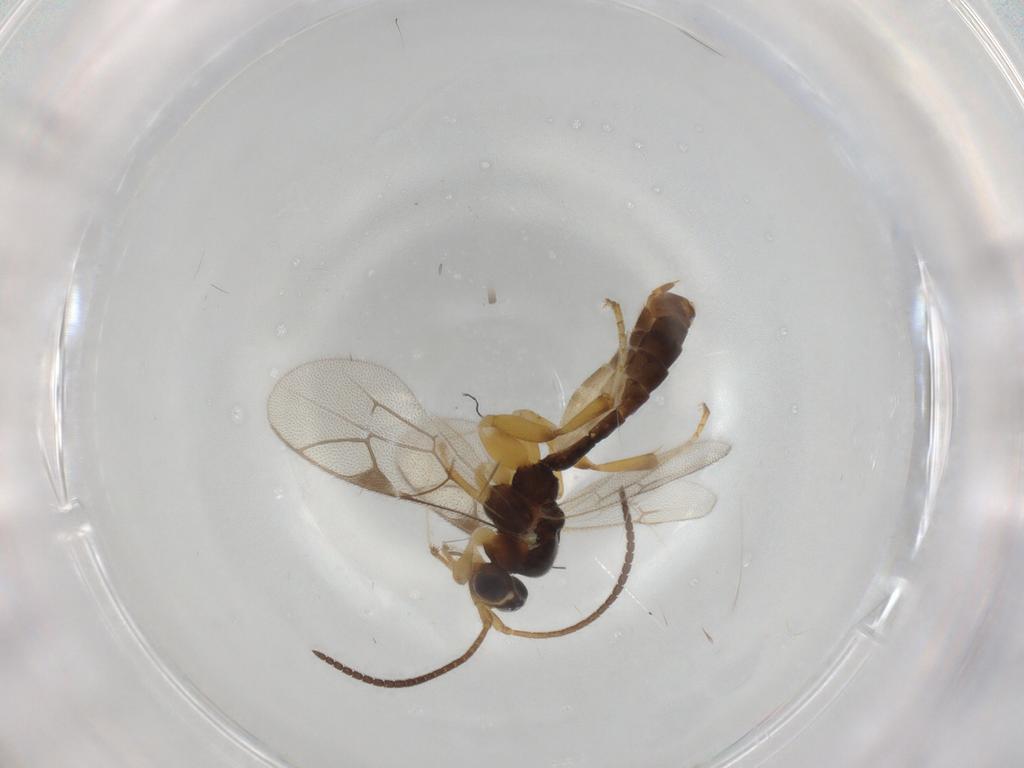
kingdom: Animalia
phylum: Arthropoda
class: Insecta
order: Hymenoptera
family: Ichneumonidae
